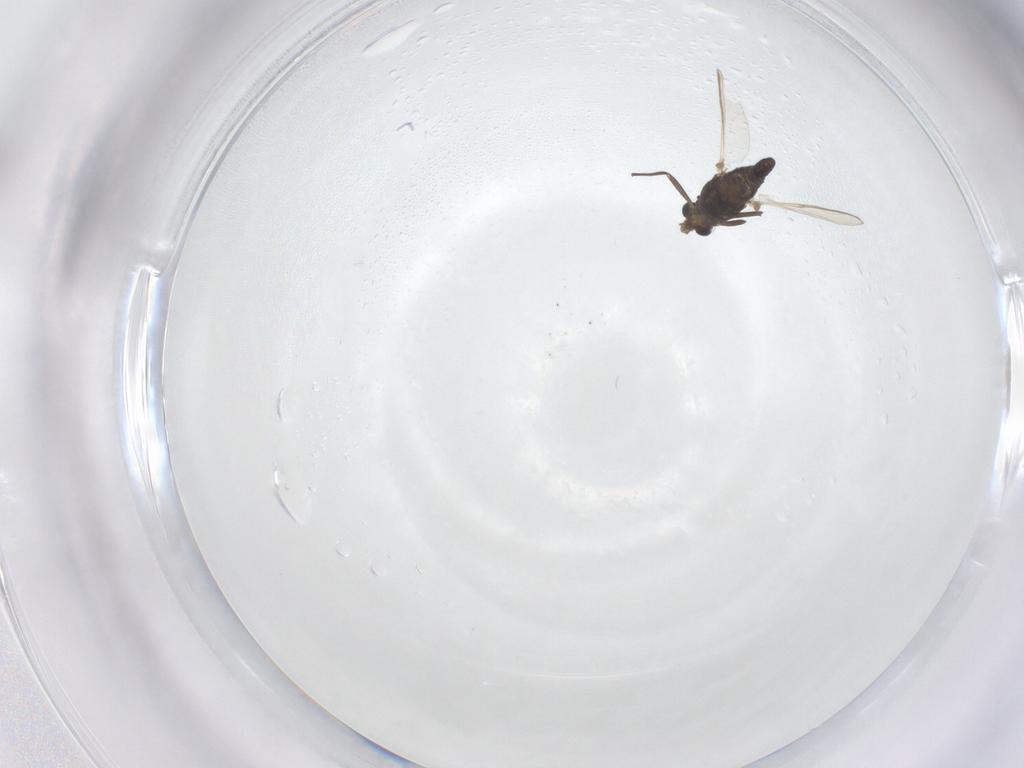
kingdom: Animalia
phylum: Arthropoda
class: Insecta
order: Diptera
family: Chironomidae
